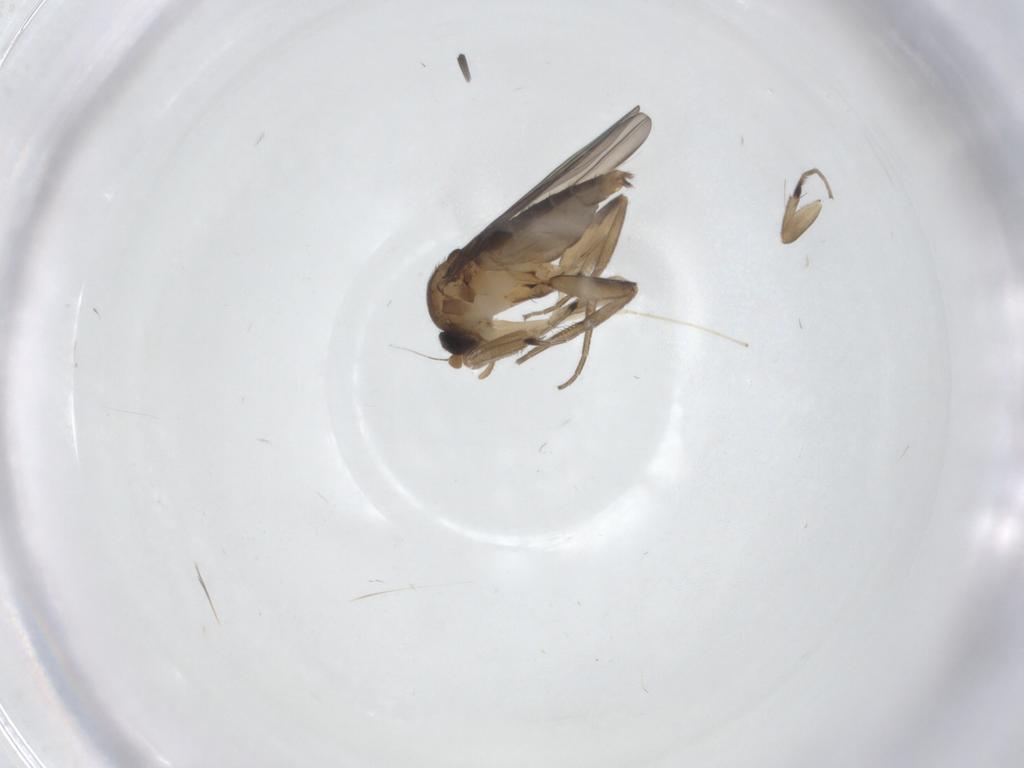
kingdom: Animalia
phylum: Arthropoda
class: Insecta
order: Diptera
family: Cecidomyiidae
